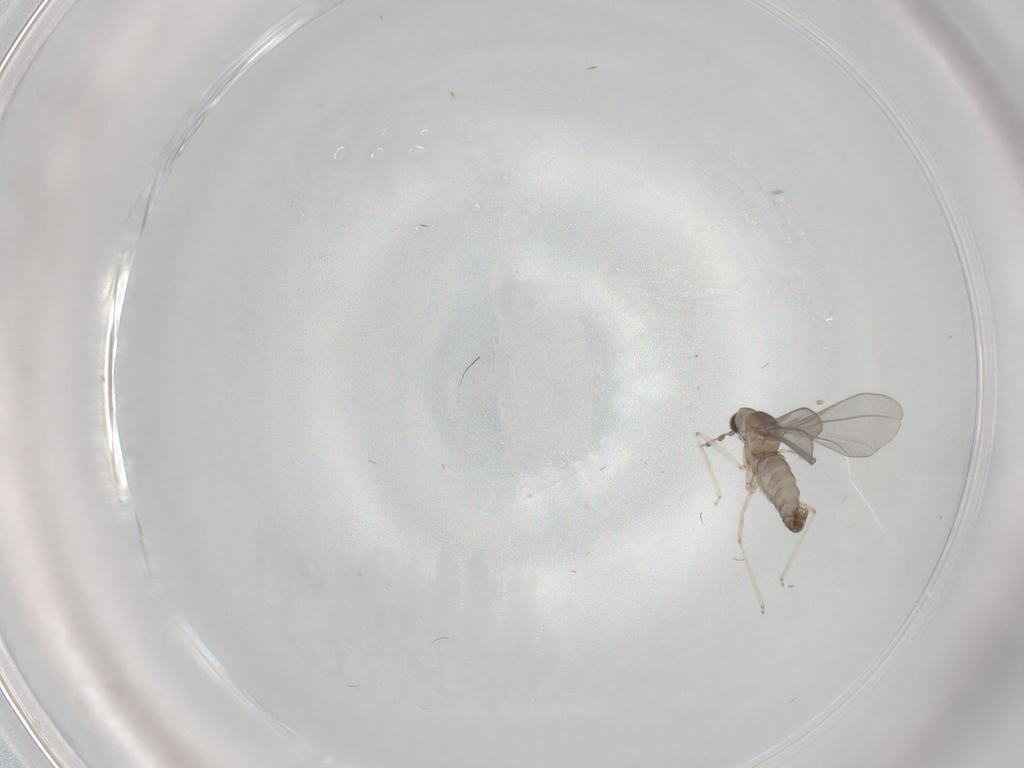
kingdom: Animalia
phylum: Arthropoda
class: Insecta
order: Diptera
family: Cecidomyiidae
